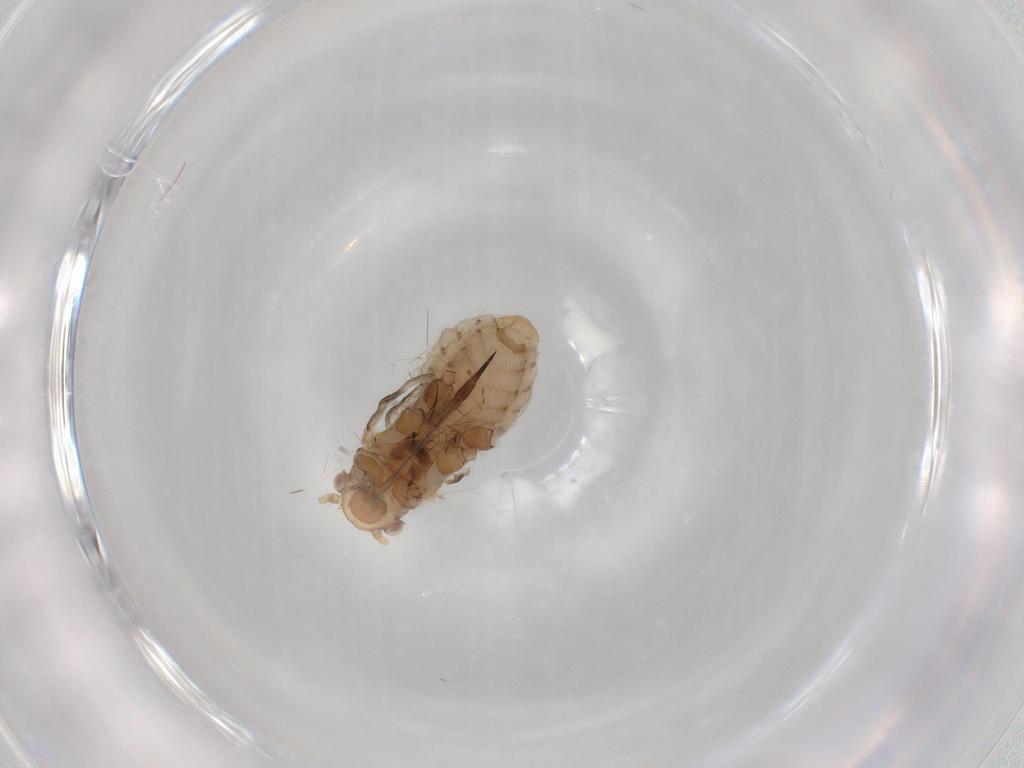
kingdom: Animalia
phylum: Arthropoda
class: Insecta
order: Hemiptera
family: Aphididae
